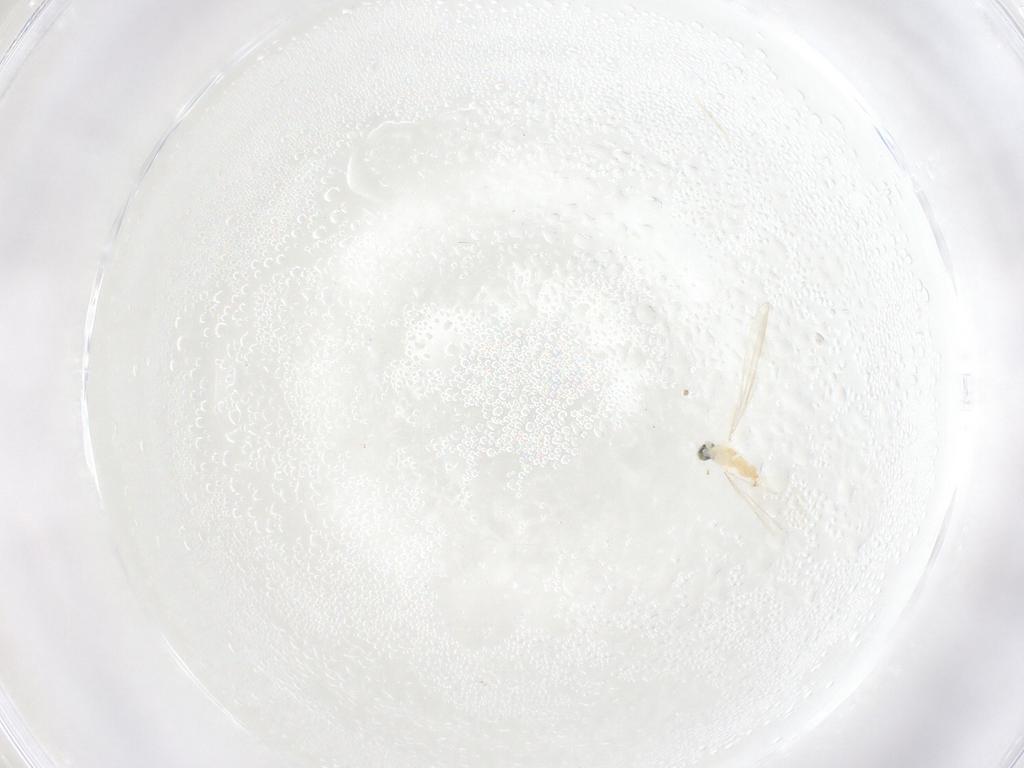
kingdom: Animalia
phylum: Arthropoda
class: Insecta
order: Diptera
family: Cecidomyiidae
